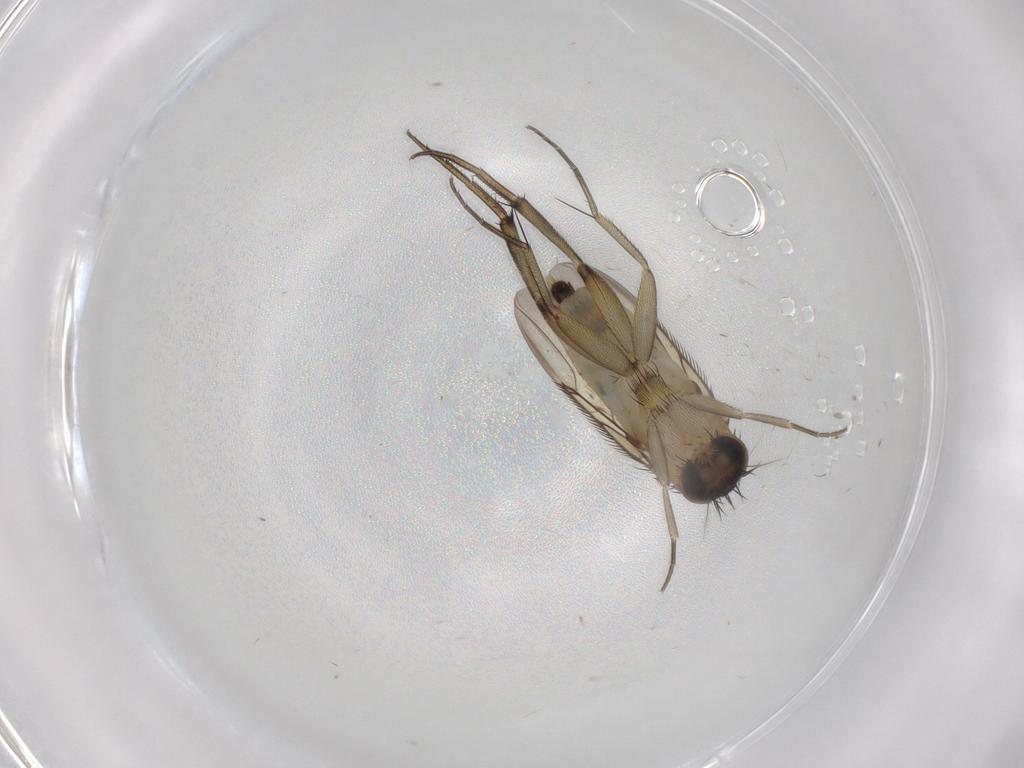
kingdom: Animalia
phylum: Arthropoda
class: Insecta
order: Diptera
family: Phoridae
